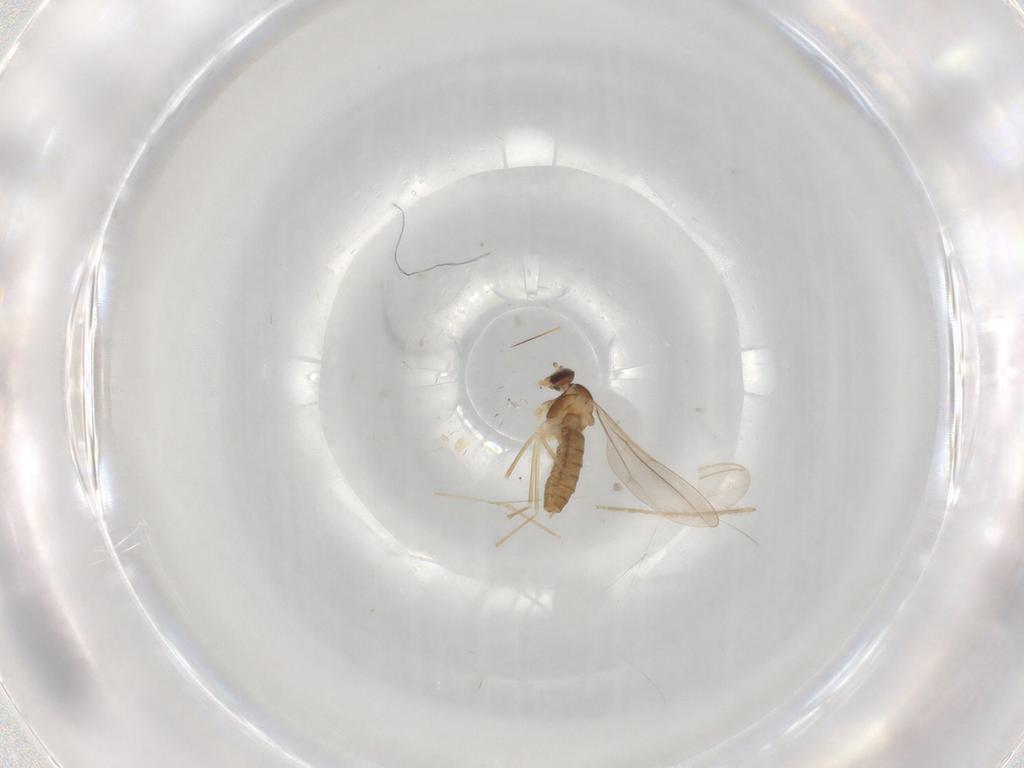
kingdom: Animalia
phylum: Arthropoda
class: Insecta
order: Diptera
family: Cecidomyiidae
